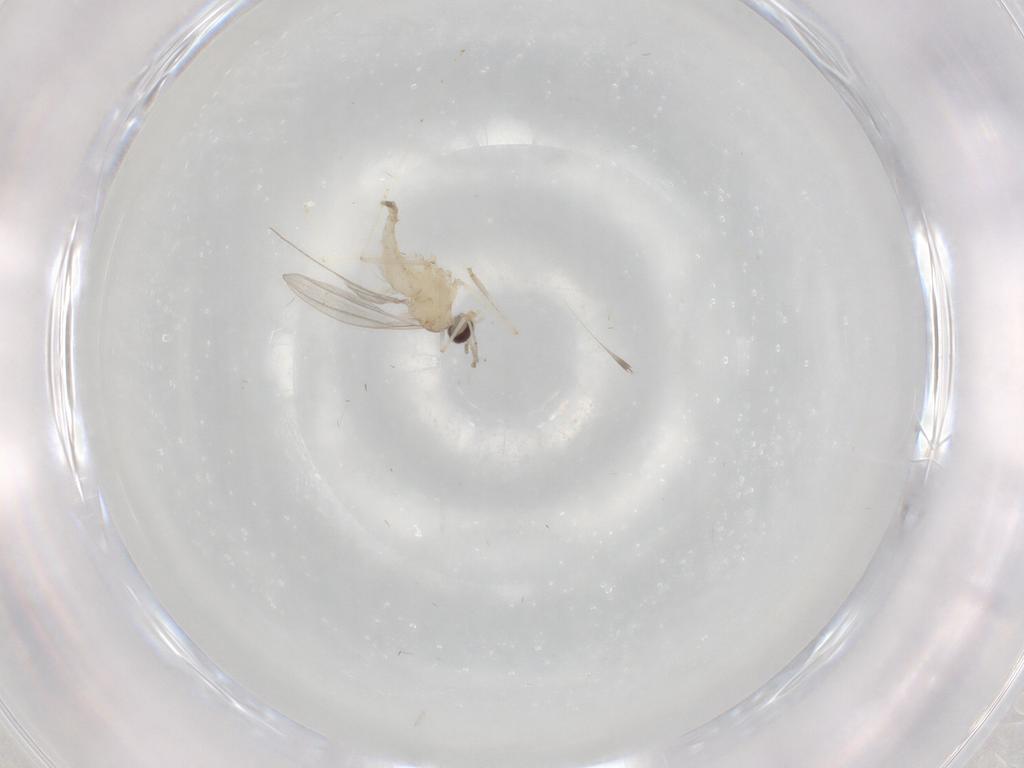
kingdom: Animalia
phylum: Arthropoda
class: Insecta
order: Diptera
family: Cecidomyiidae
